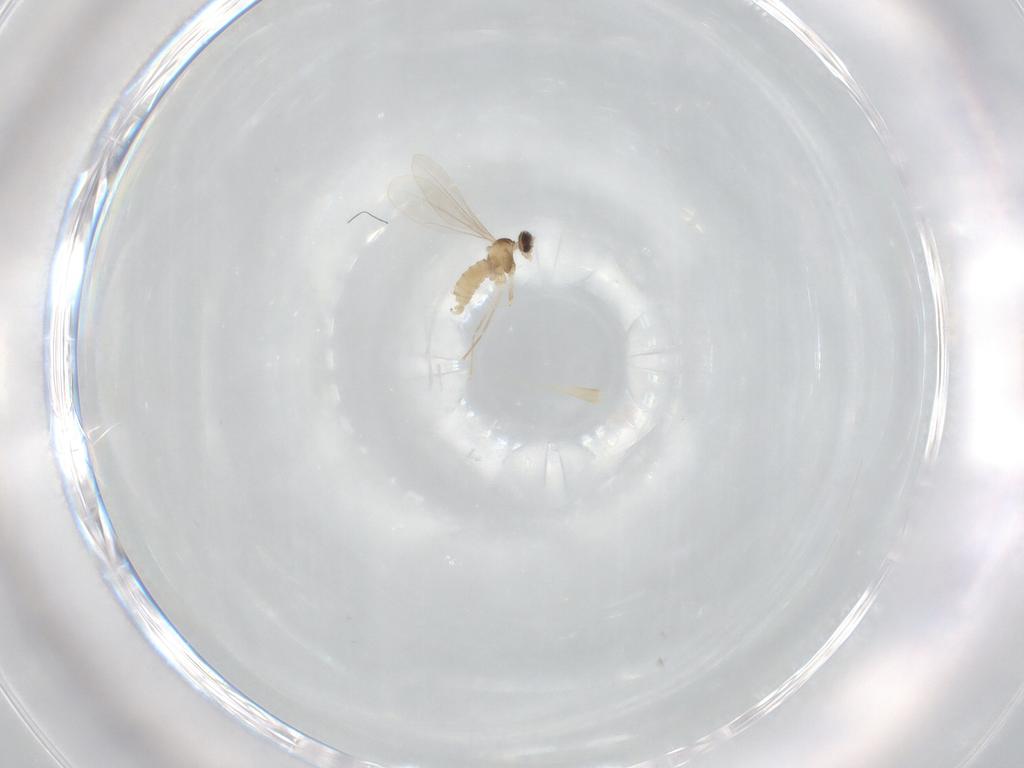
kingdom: Animalia
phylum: Arthropoda
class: Insecta
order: Diptera
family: Cecidomyiidae
